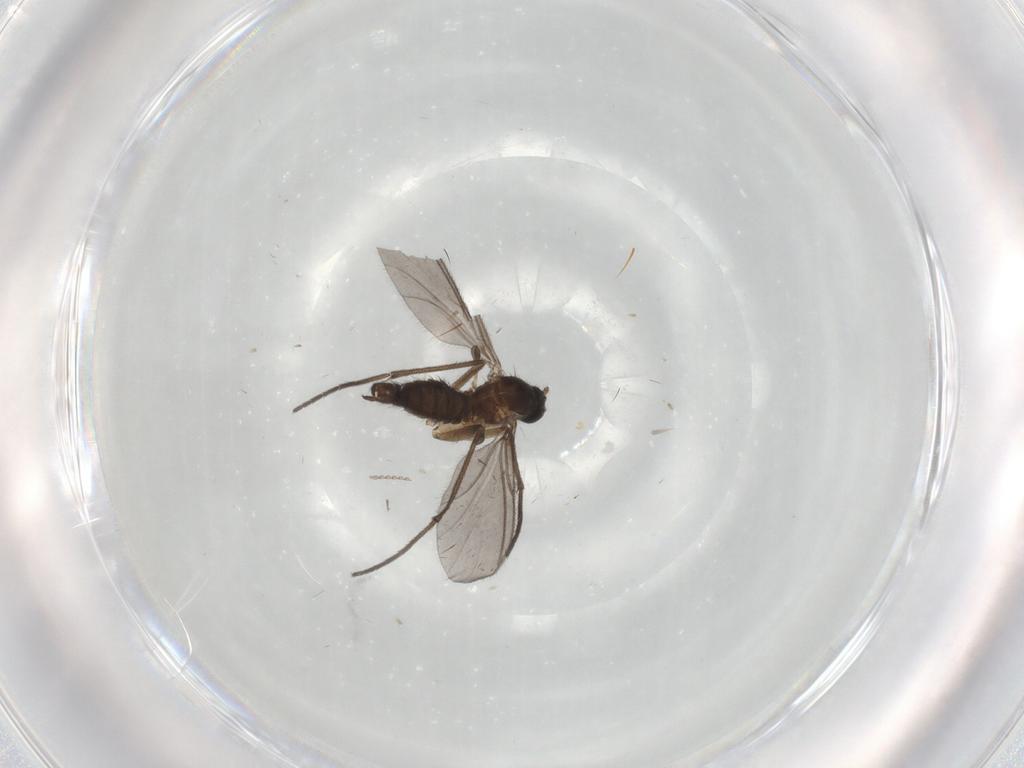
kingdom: Animalia
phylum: Arthropoda
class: Insecta
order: Diptera
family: Sciaridae
